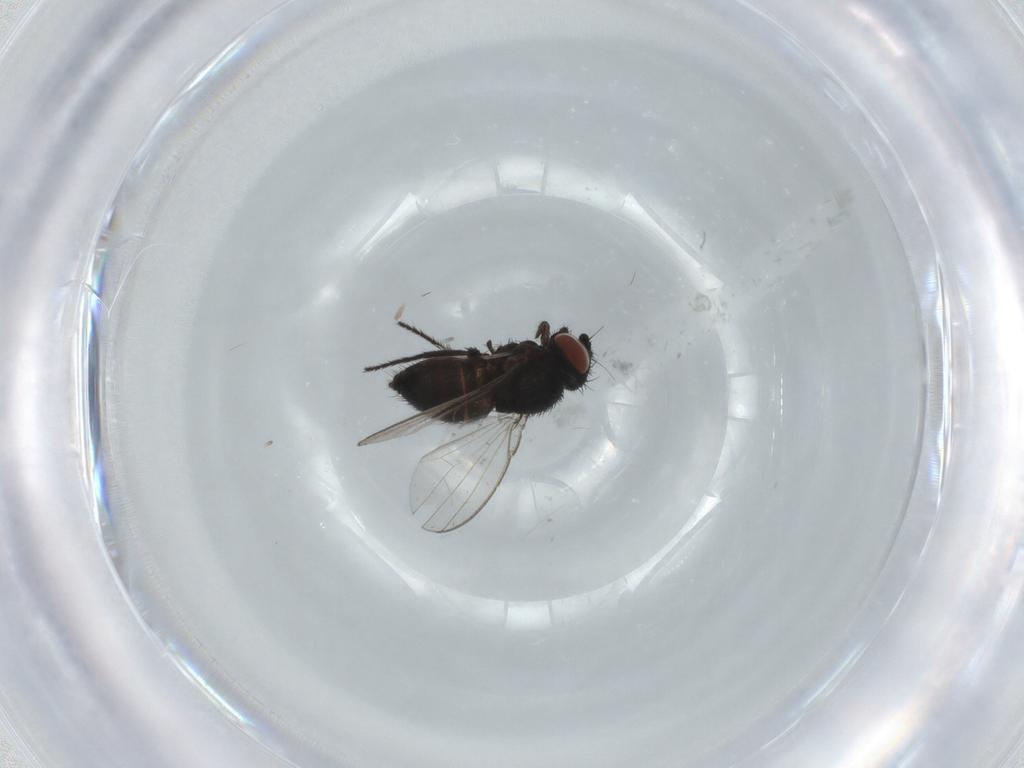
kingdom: Animalia
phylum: Arthropoda
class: Insecta
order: Diptera
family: Milichiidae
